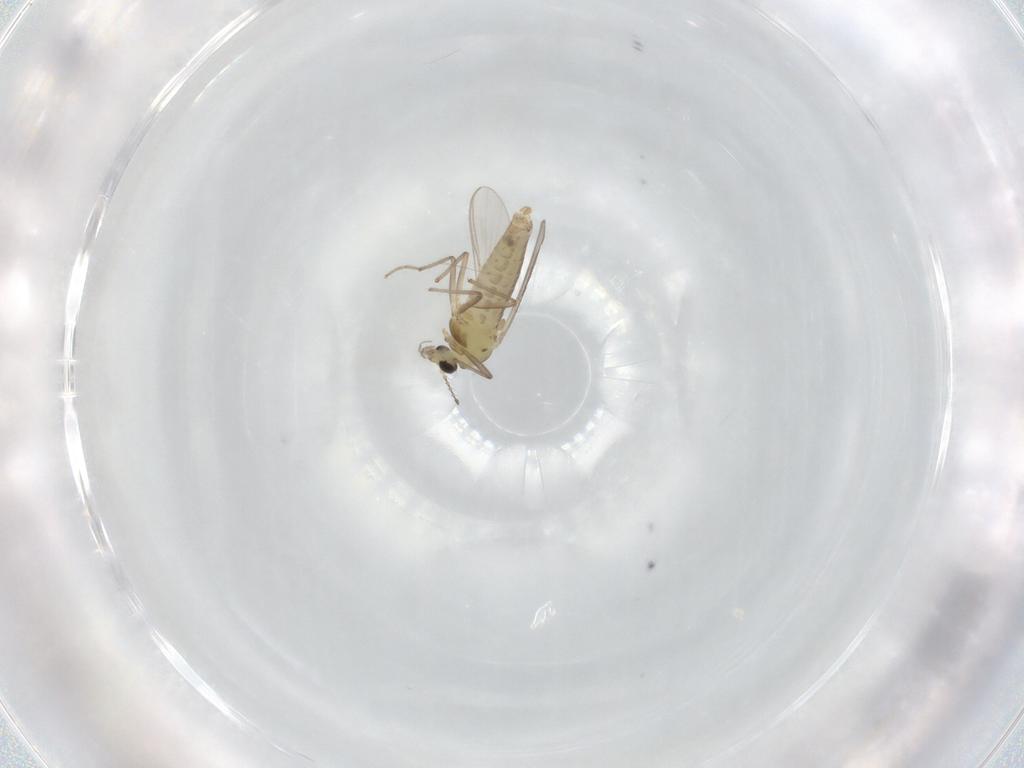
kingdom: Animalia
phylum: Arthropoda
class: Insecta
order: Diptera
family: Chironomidae
